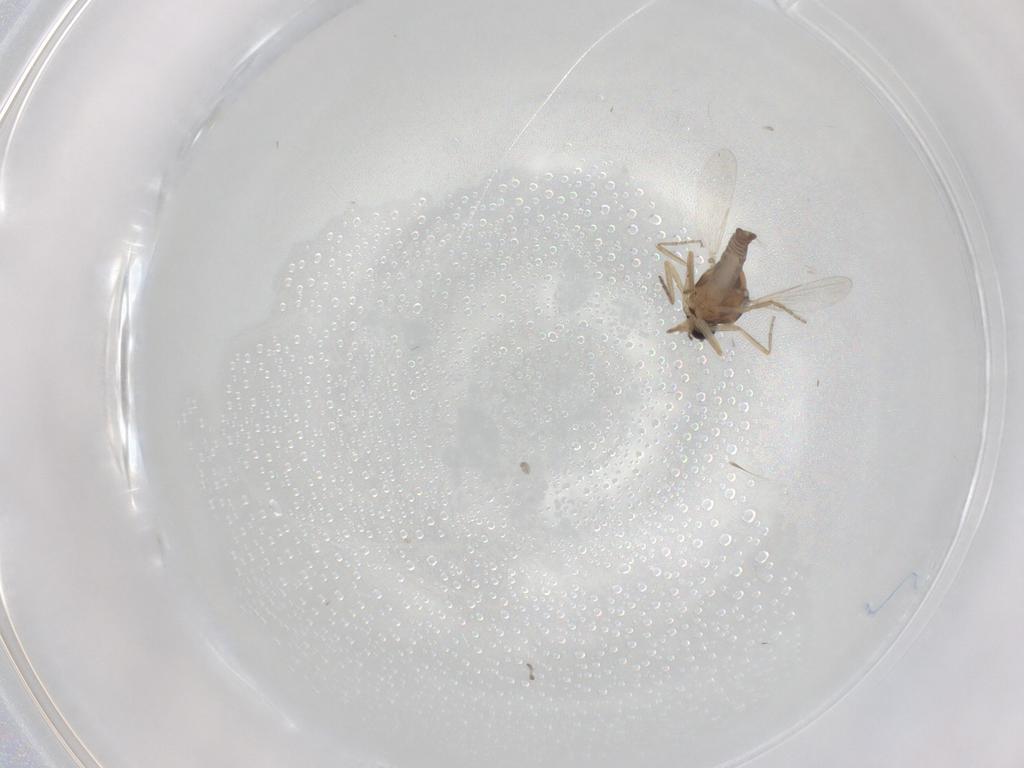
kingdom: Animalia
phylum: Arthropoda
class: Insecta
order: Diptera
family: Ceratopogonidae
